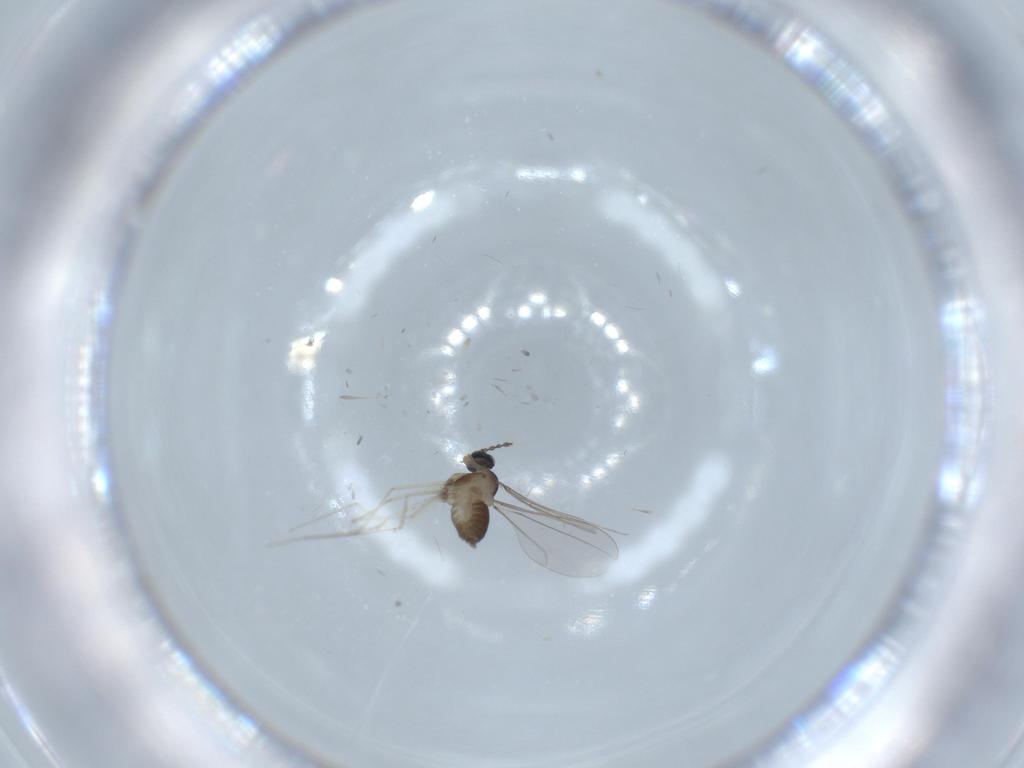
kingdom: Animalia
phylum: Arthropoda
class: Insecta
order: Diptera
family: Cecidomyiidae
